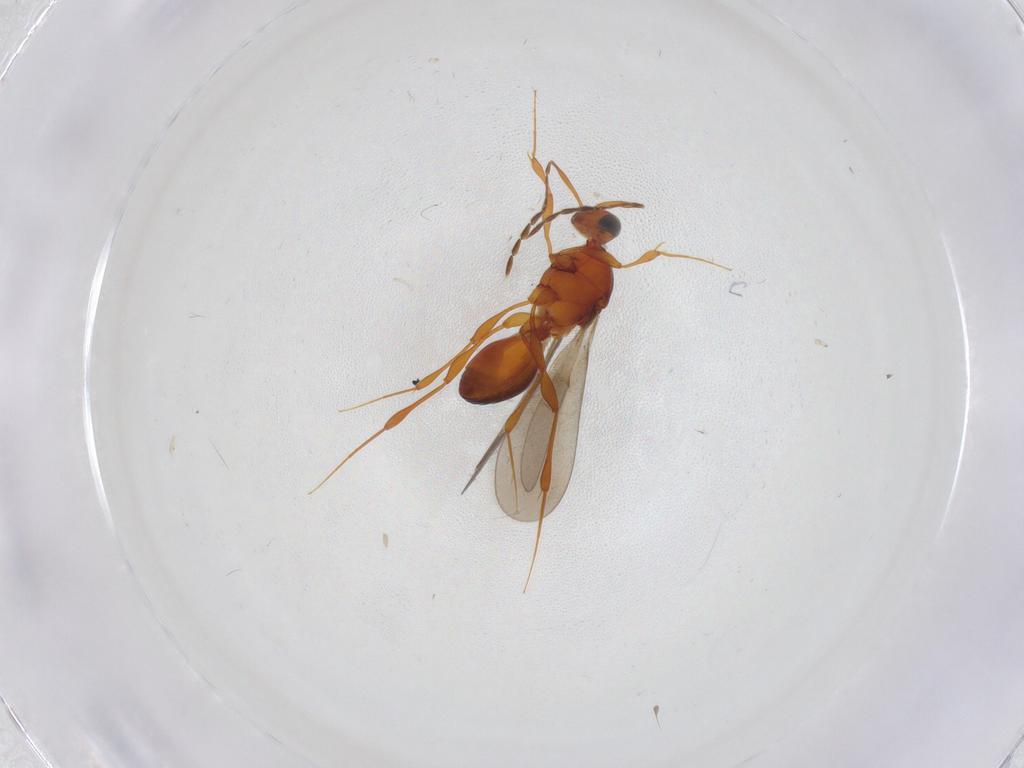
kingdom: Animalia
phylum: Arthropoda
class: Insecta
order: Hymenoptera
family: Platygastridae
